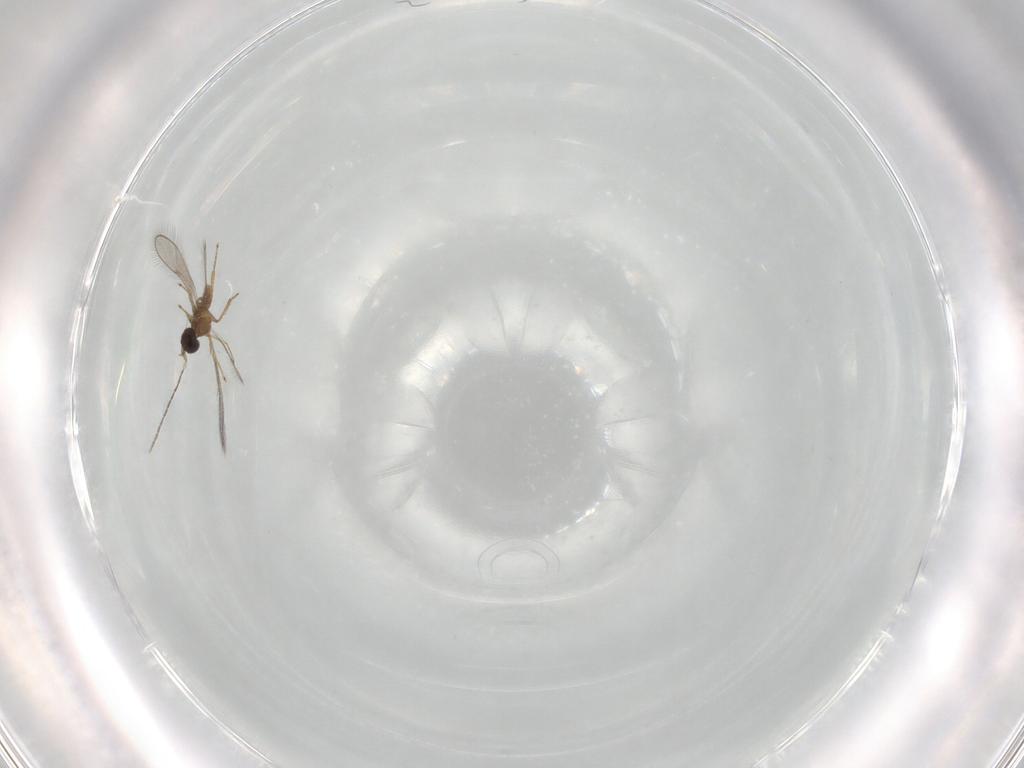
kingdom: Animalia
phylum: Arthropoda
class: Insecta
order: Hymenoptera
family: Mymaridae
